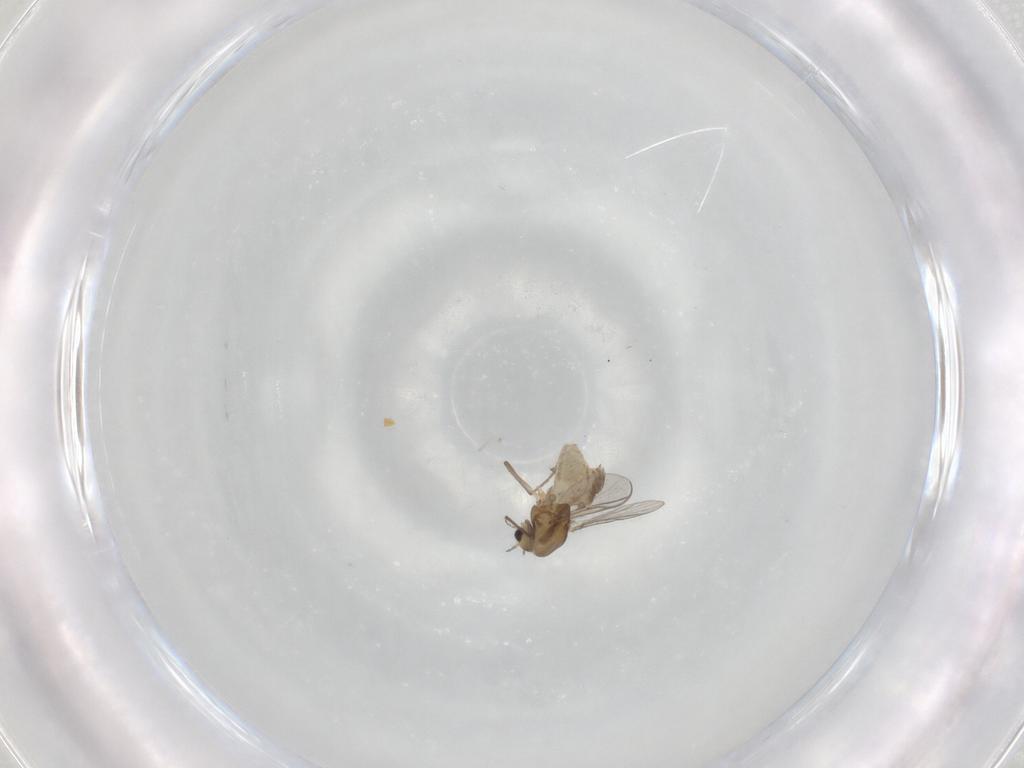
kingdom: Animalia
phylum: Arthropoda
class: Insecta
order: Diptera
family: Chironomidae
